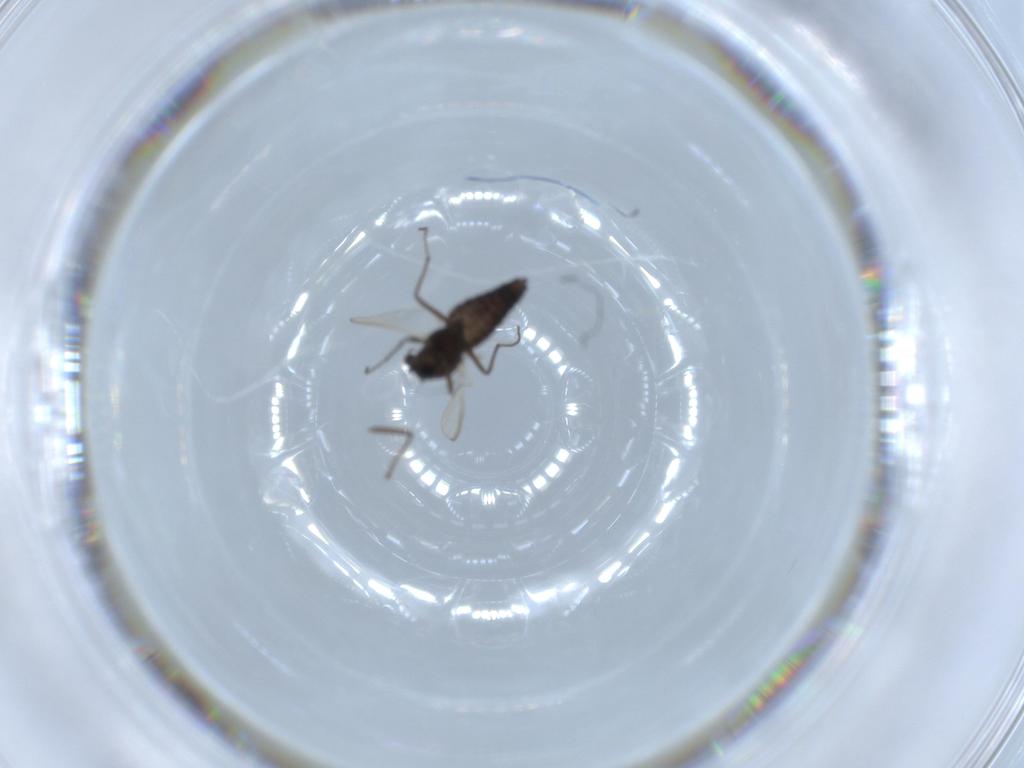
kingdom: Animalia
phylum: Arthropoda
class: Insecta
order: Diptera
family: Chironomidae
